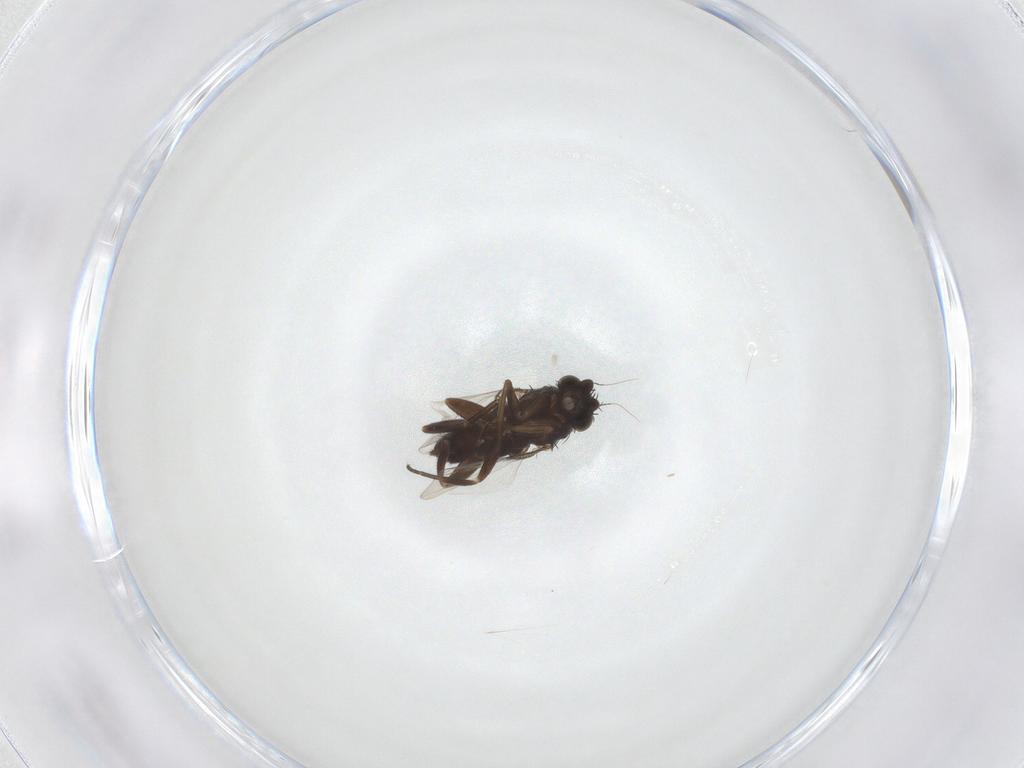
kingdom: Animalia
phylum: Arthropoda
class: Insecta
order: Diptera
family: Phoridae
